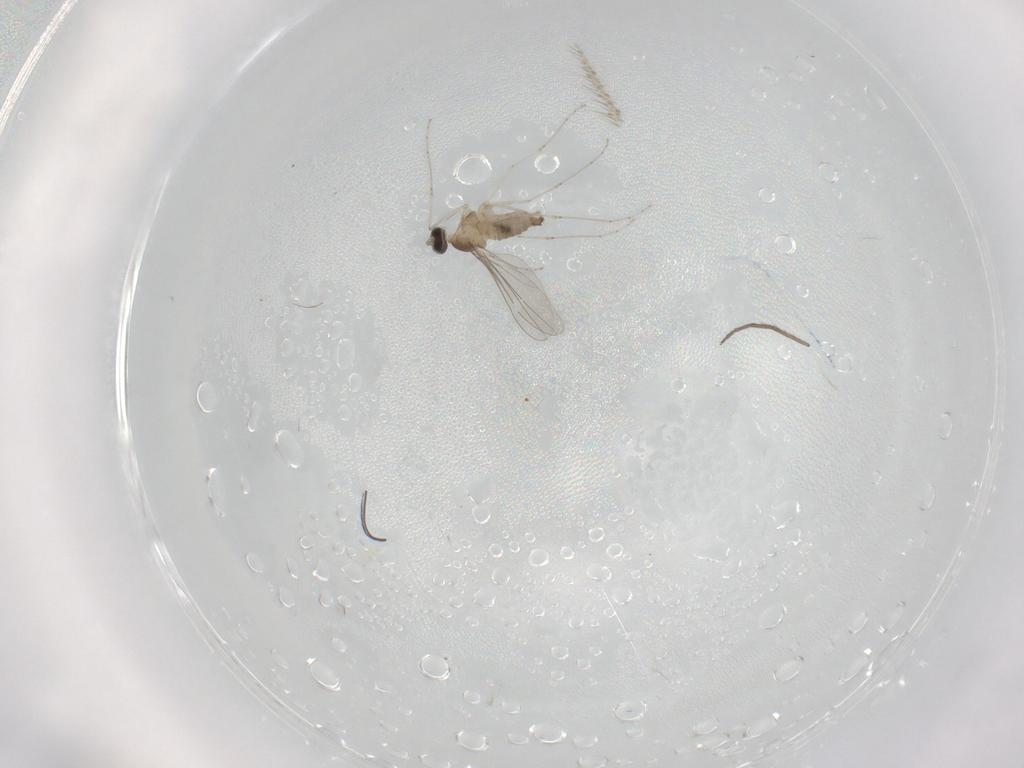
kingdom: Animalia
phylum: Arthropoda
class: Insecta
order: Diptera
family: Cecidomyiidae
